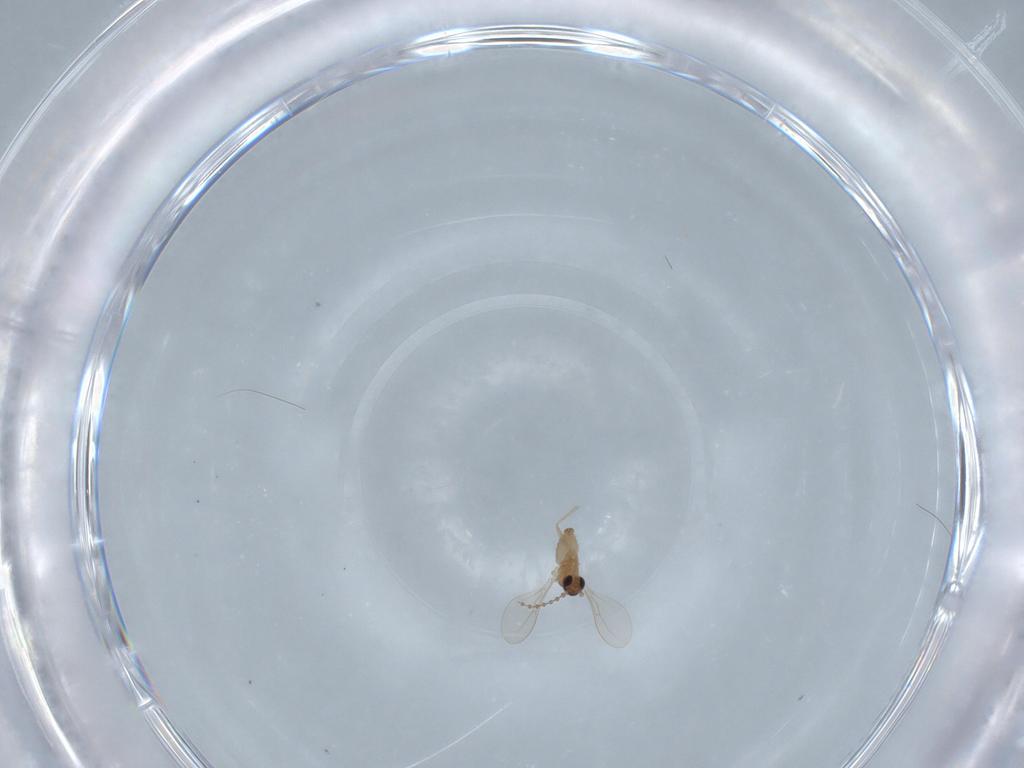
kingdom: Animalia
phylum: Arthropoda
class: Insecta
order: Diptera
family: Cecidomyiidae
